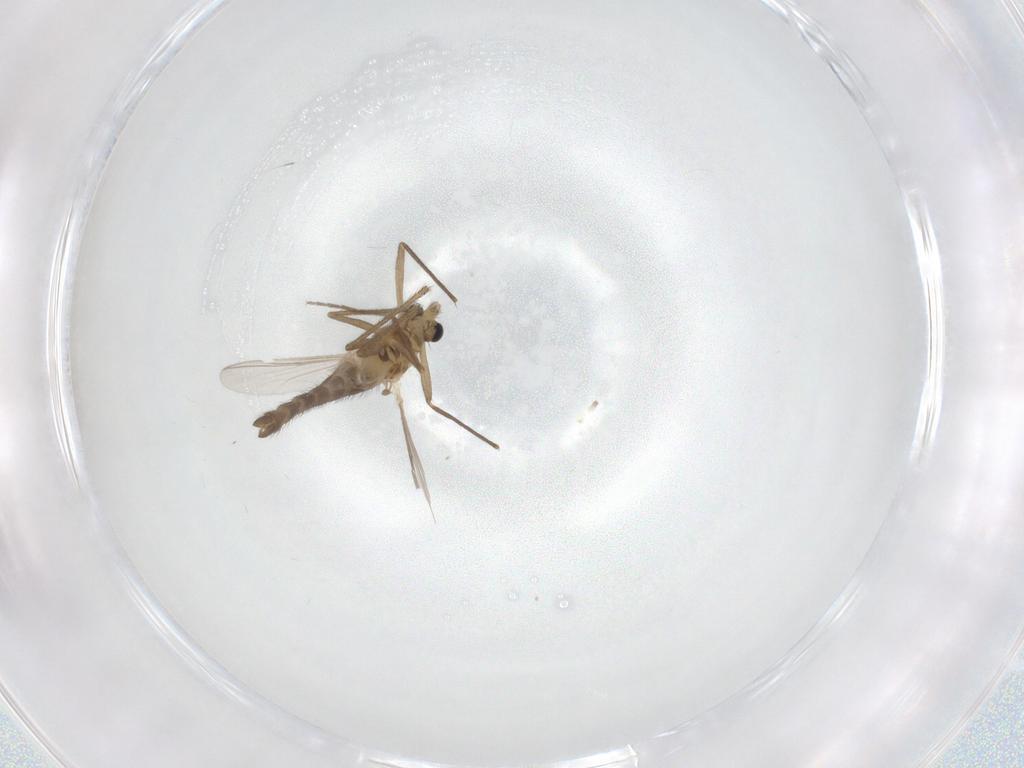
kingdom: Animalia
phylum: Arthropoda
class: Insecta
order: Diptera
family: Chironomidae
